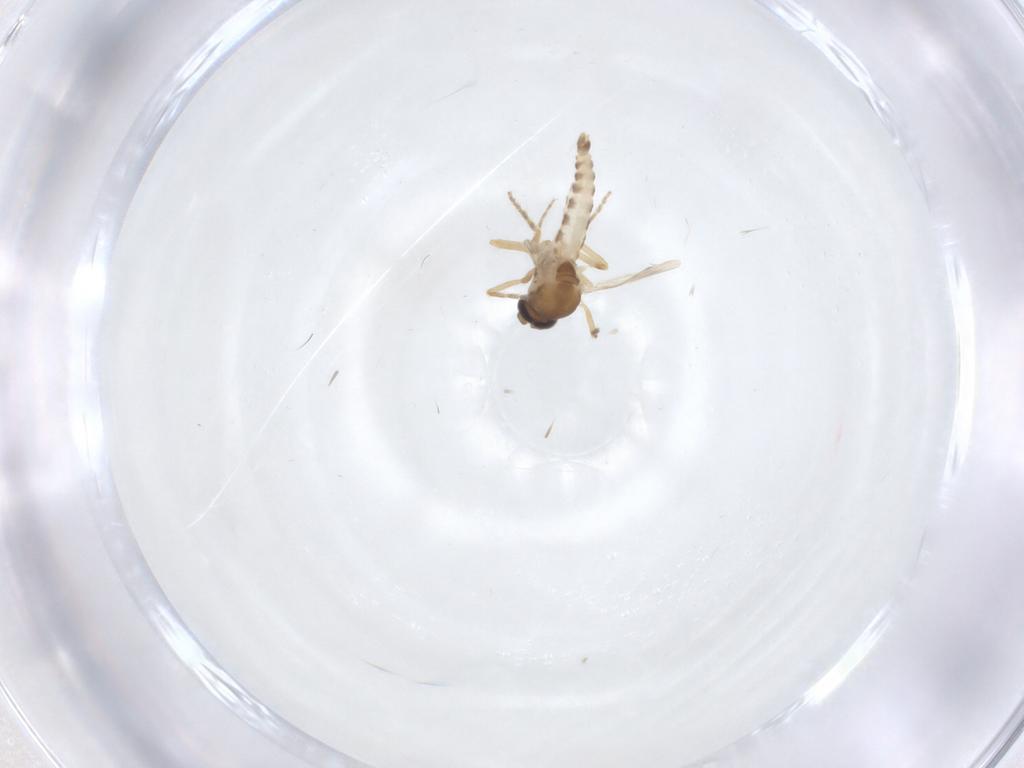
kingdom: Animalia
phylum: Arthropoda
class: Insecta
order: Diptera
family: Ceratopogonidae
